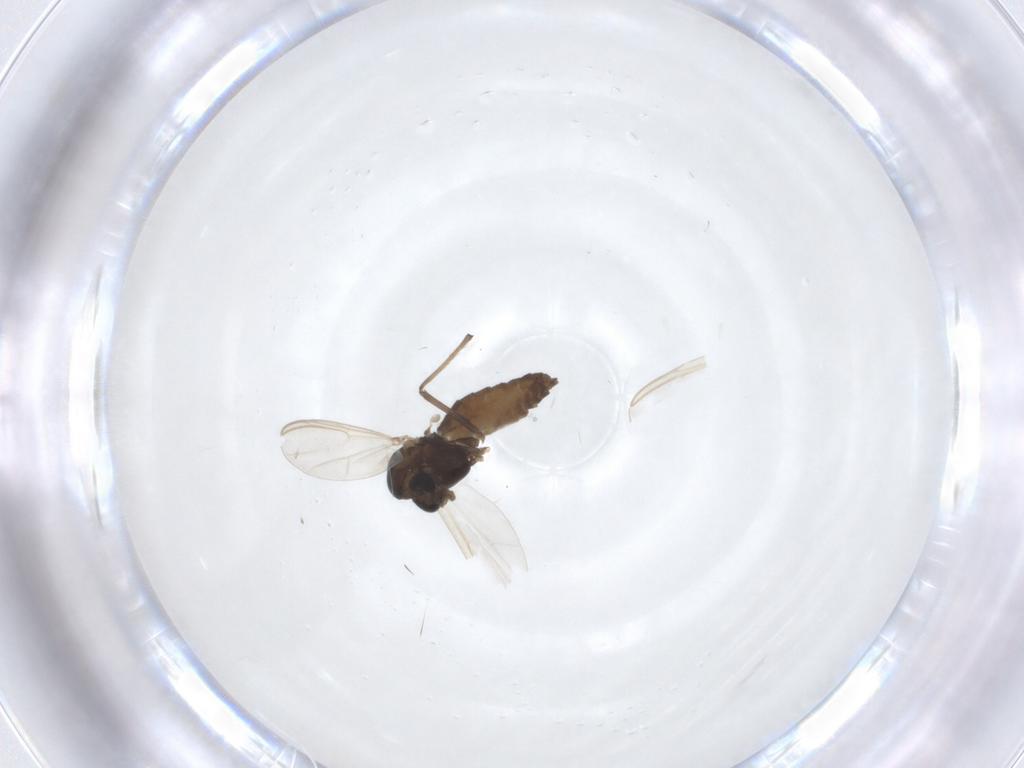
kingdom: Animalia
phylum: Arthropoda
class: Insecta
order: Diptera
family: Chironomidae
